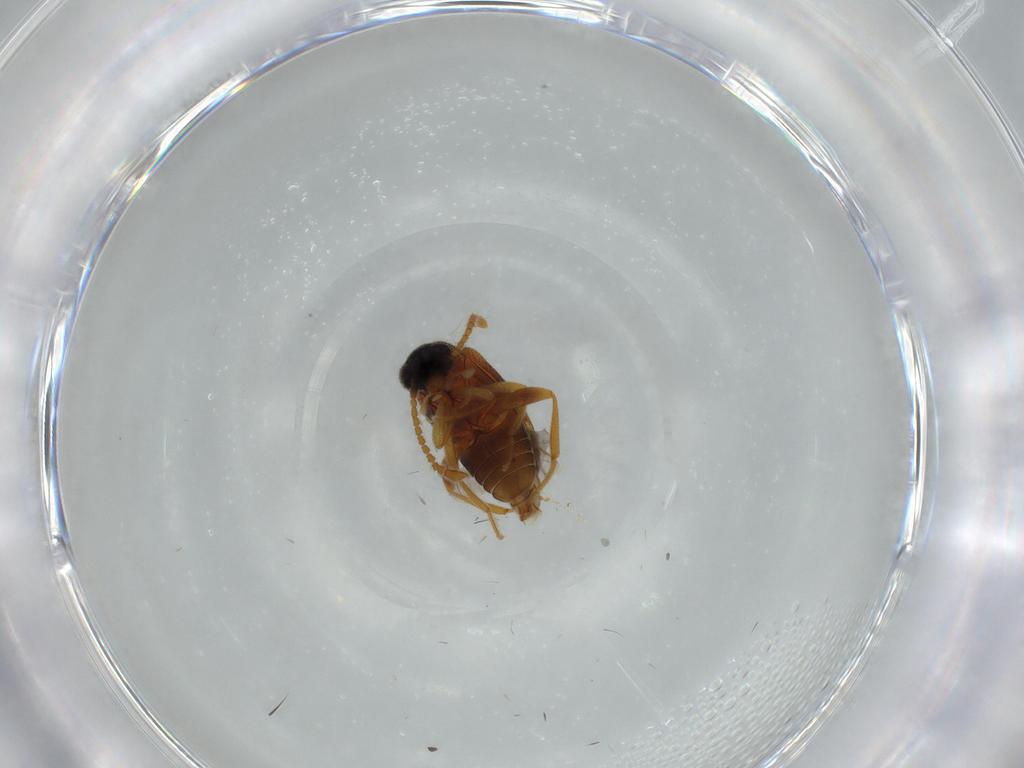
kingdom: Animalia
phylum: Arthropoda
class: Insecta
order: Coleoptera
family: Aderidae
